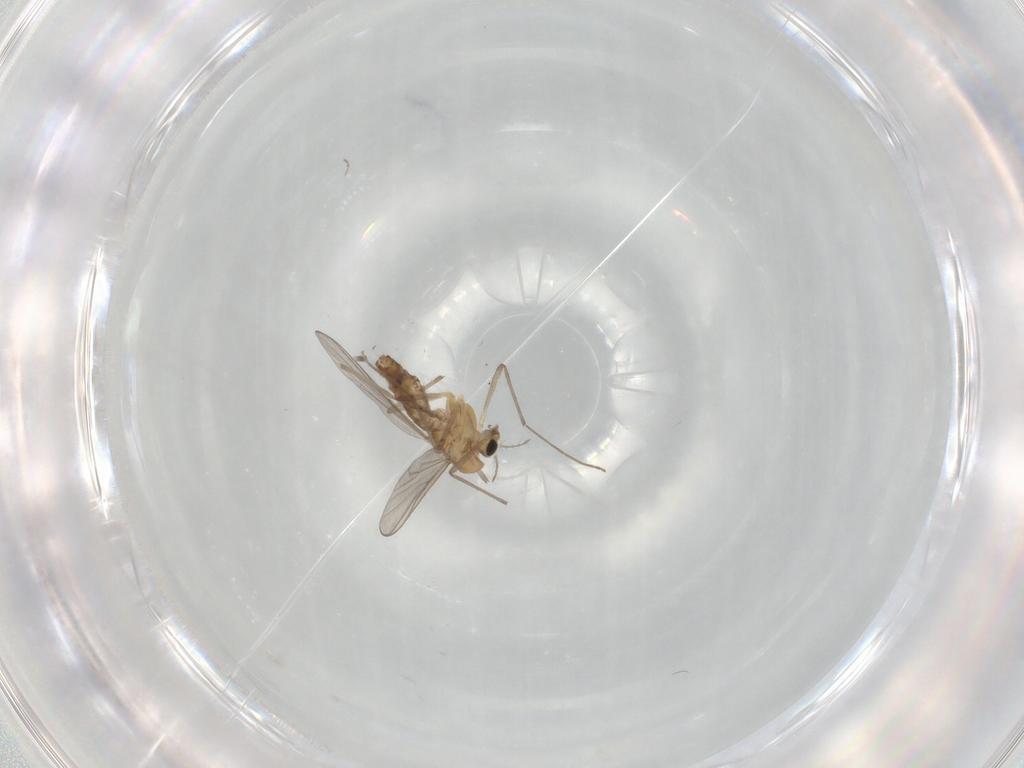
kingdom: Animalia
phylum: Arthropoda
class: Insecta
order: Diptera
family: Chironomidae
